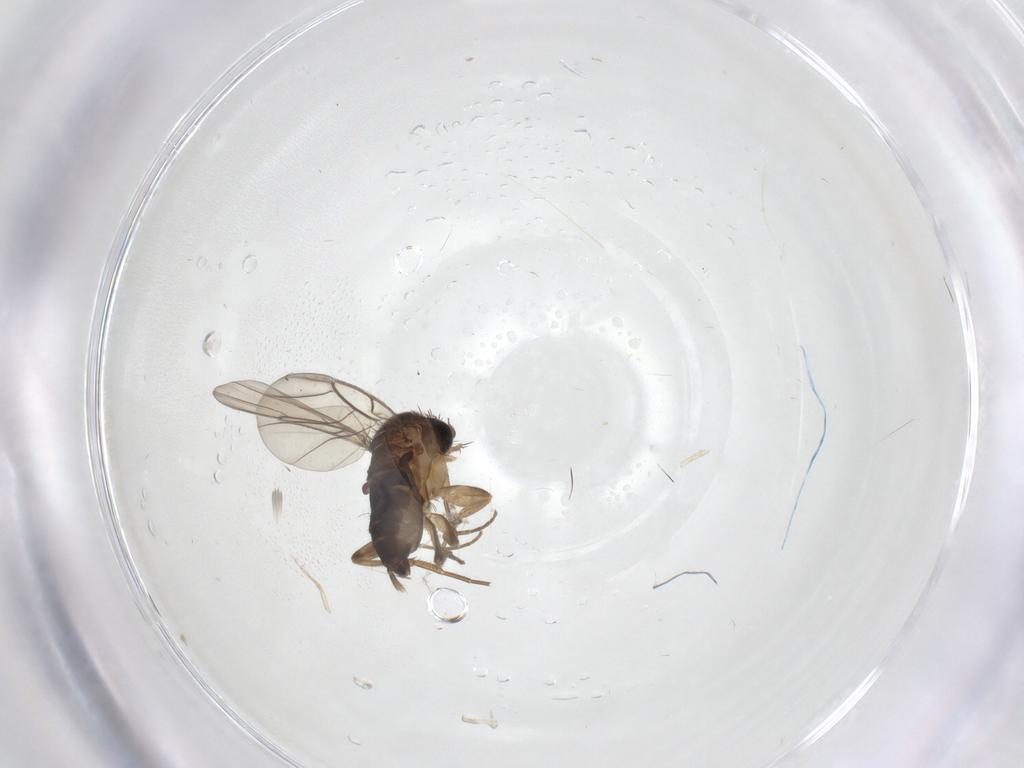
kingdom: Animalia
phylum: Arthropoda
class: Insecta
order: Diptera
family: Phoridae
